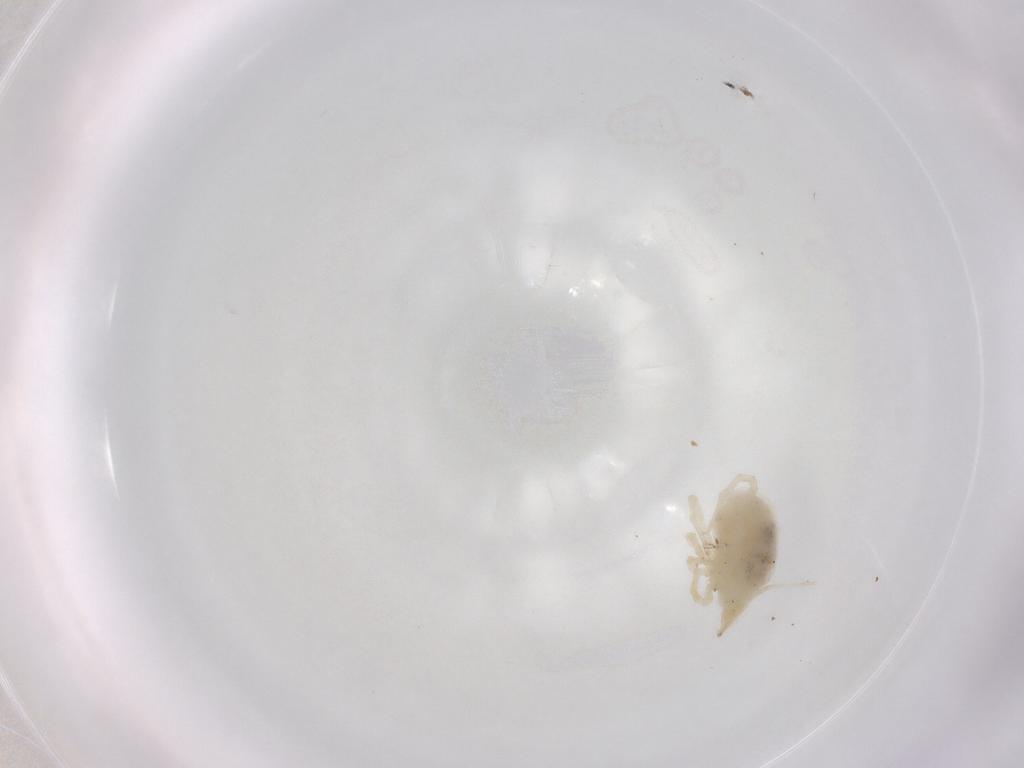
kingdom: Animalia
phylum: Arthropoda
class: Arachnida
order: Trombidiformes
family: Bdellidae
